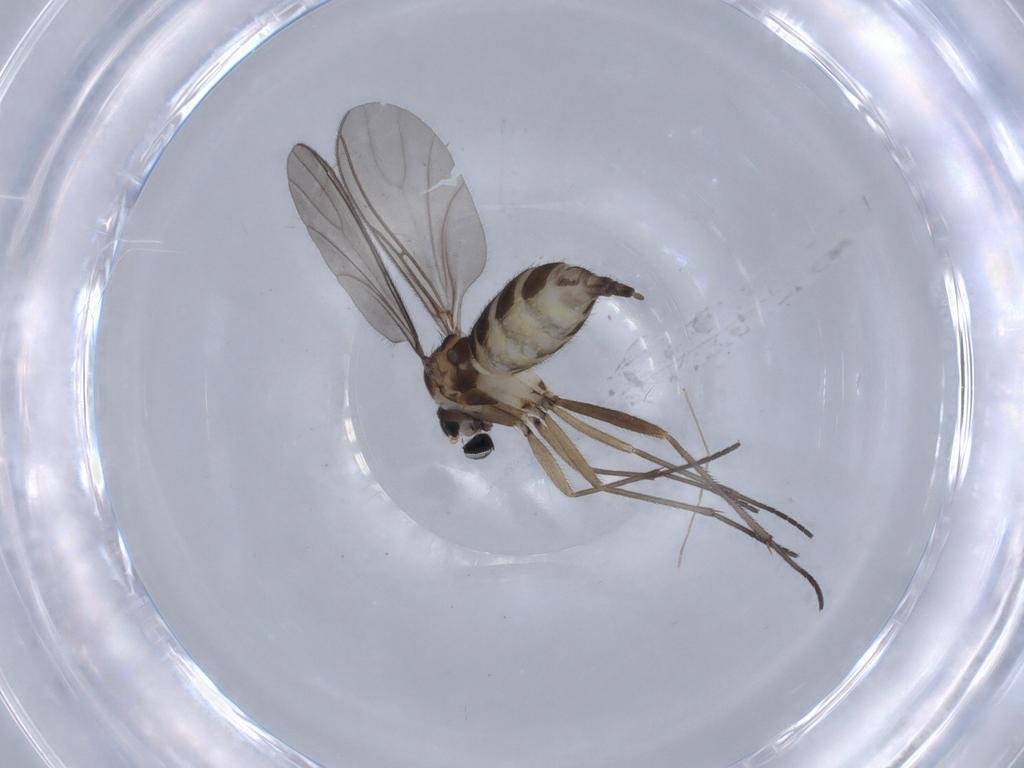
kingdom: Animalia
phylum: Arthropoda
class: Insecta
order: Diptera
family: Sciaridae
